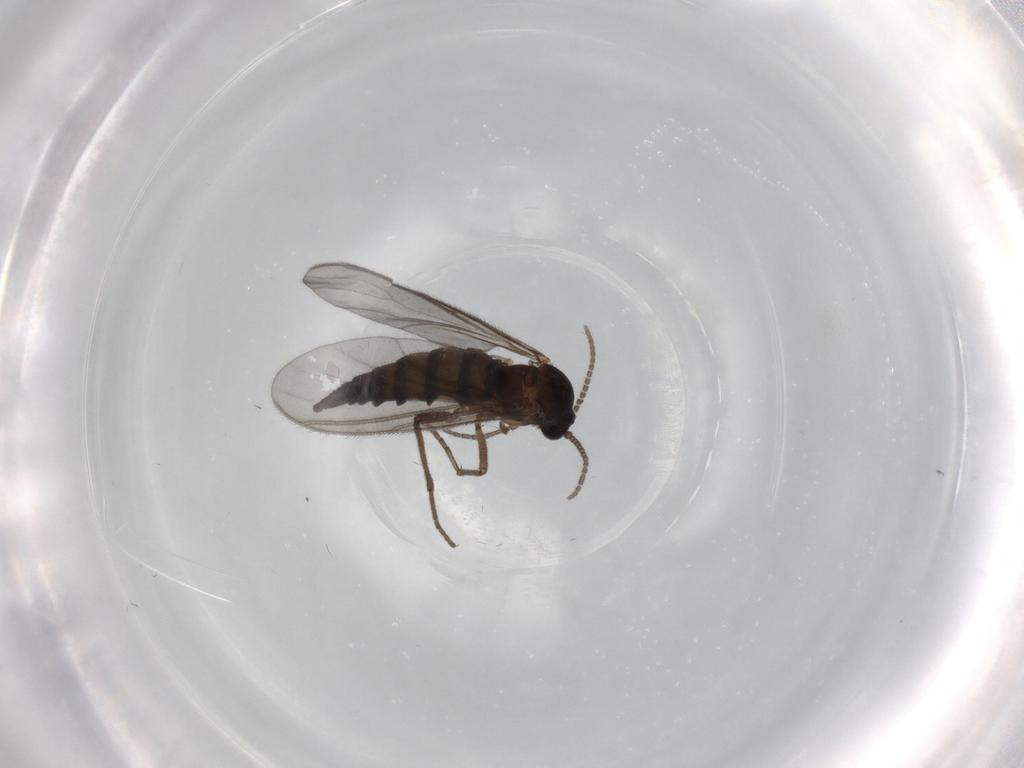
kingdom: Animalia
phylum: Arthropoda
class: Insecta
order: Diptera
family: Sciaridae
